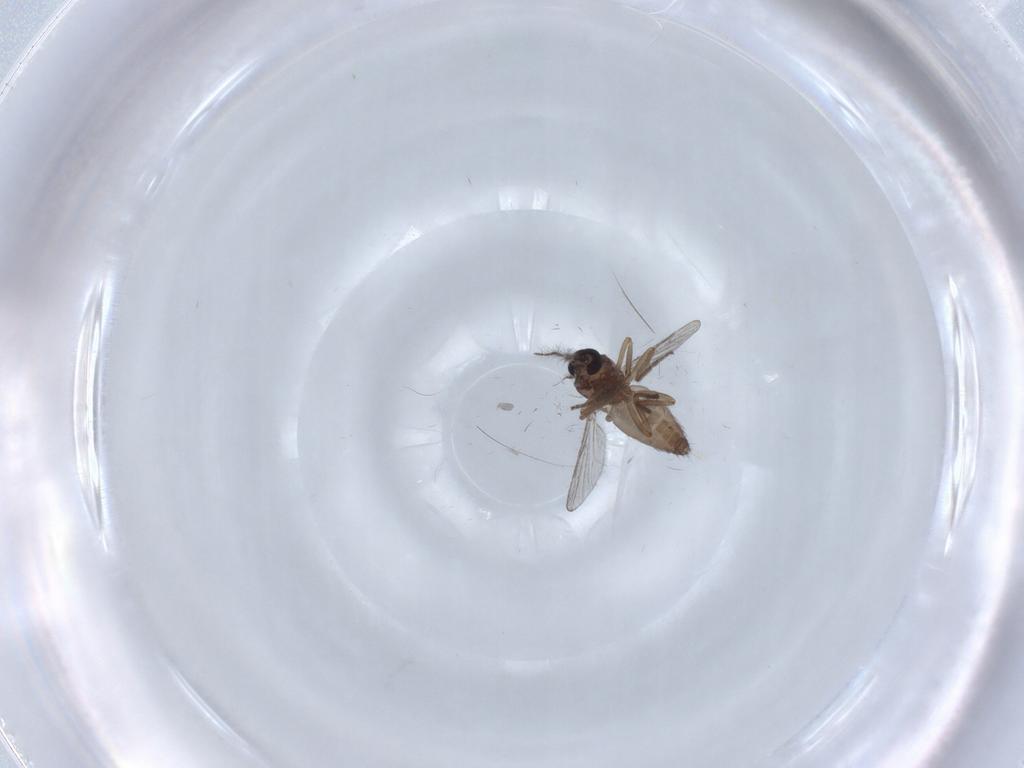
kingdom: Animalia
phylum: Arthropoda
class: Insecta
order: Diptera
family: Sciaridae
